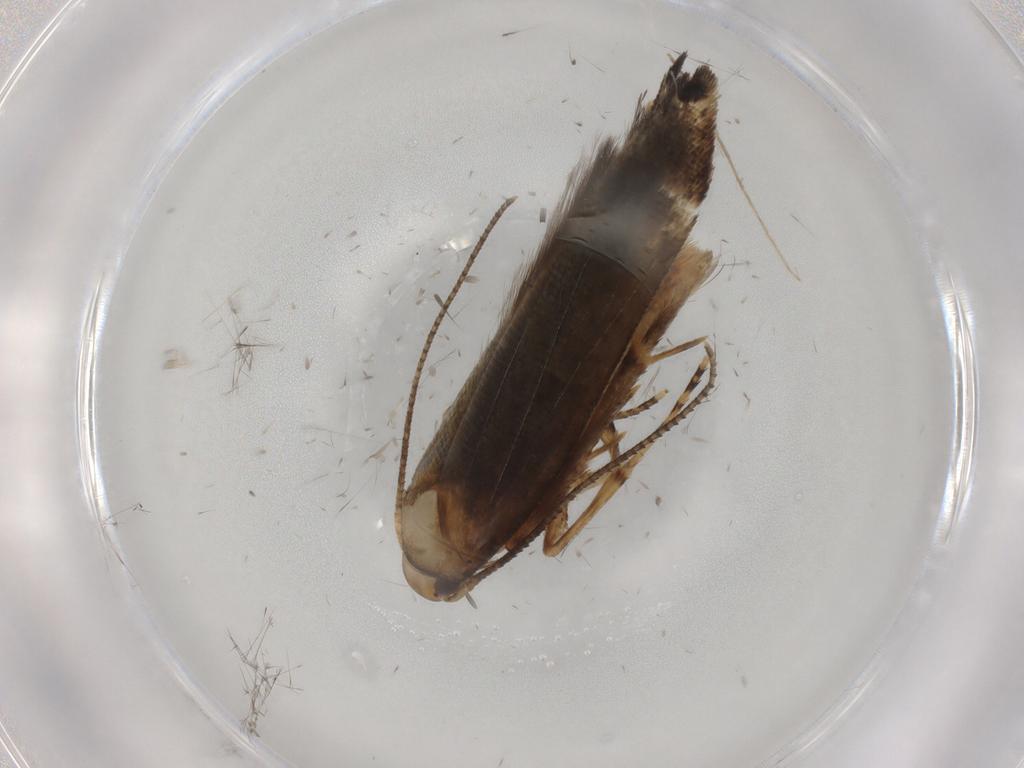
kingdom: Animalia
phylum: Arthropoda
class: Insecta
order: Lepidoptera
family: Cosmopterigidae
